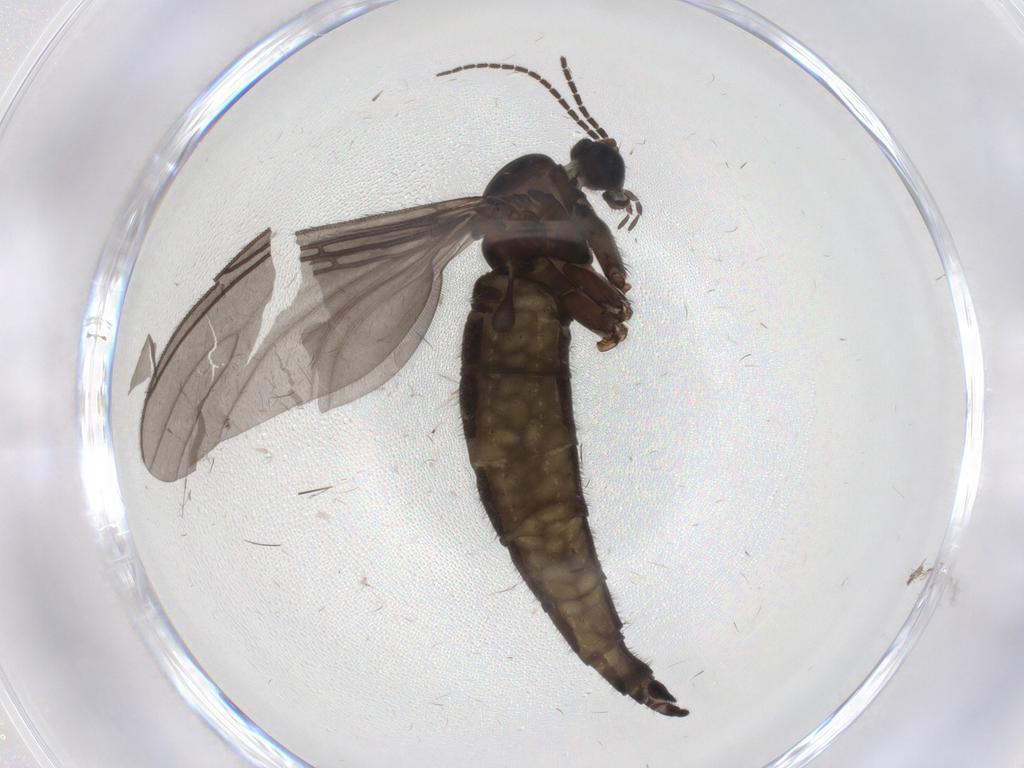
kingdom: Animalia
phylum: Arthropoda
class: Insecta
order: Diptera
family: Sciaridae
